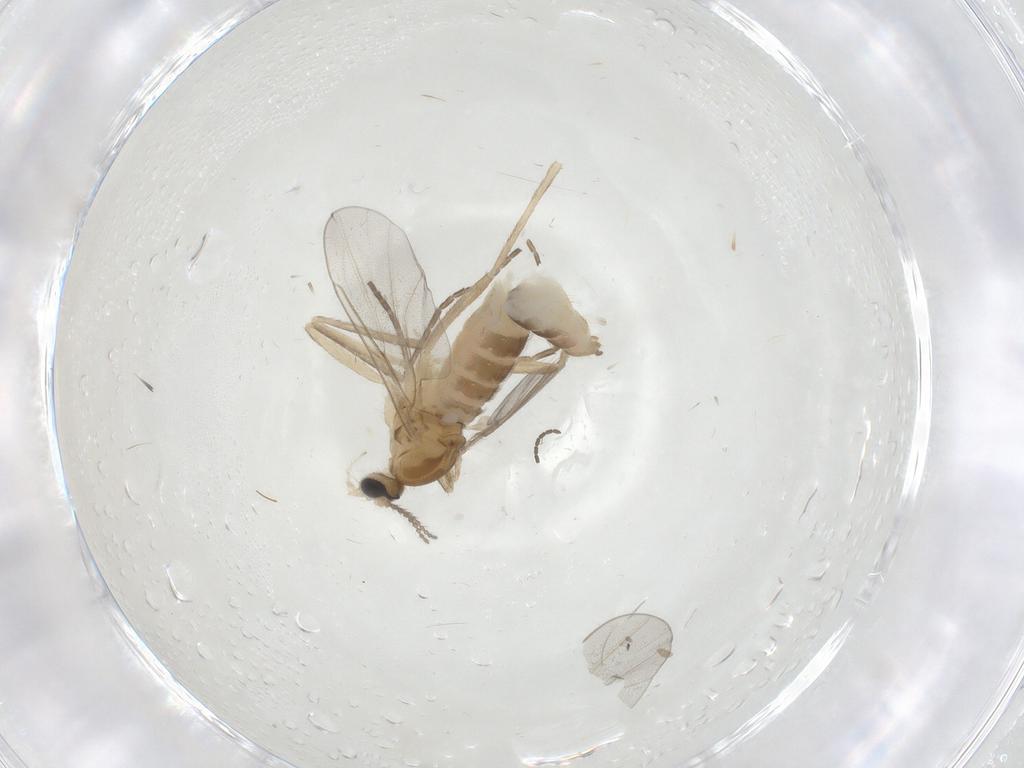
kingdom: Animalia
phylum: Arthropoda
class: Insecta
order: Diptera
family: Cecidomyiidae
